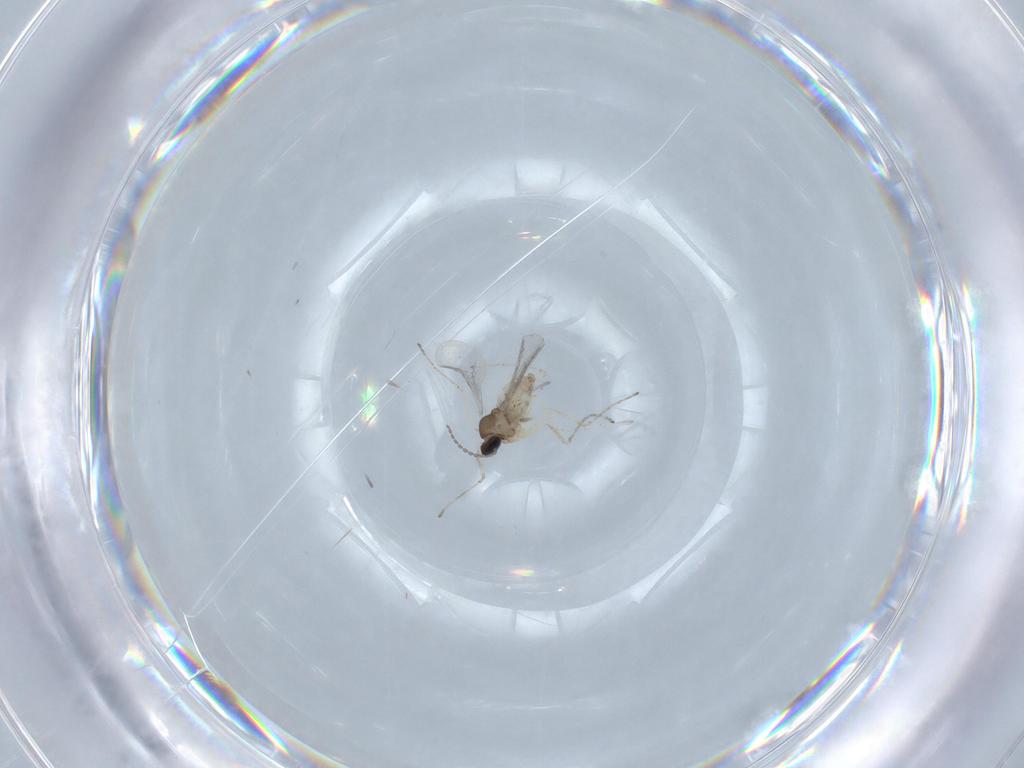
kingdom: Animalia
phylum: Arthropoda
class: Insecta
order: Diptera
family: Cecidomyiidae
